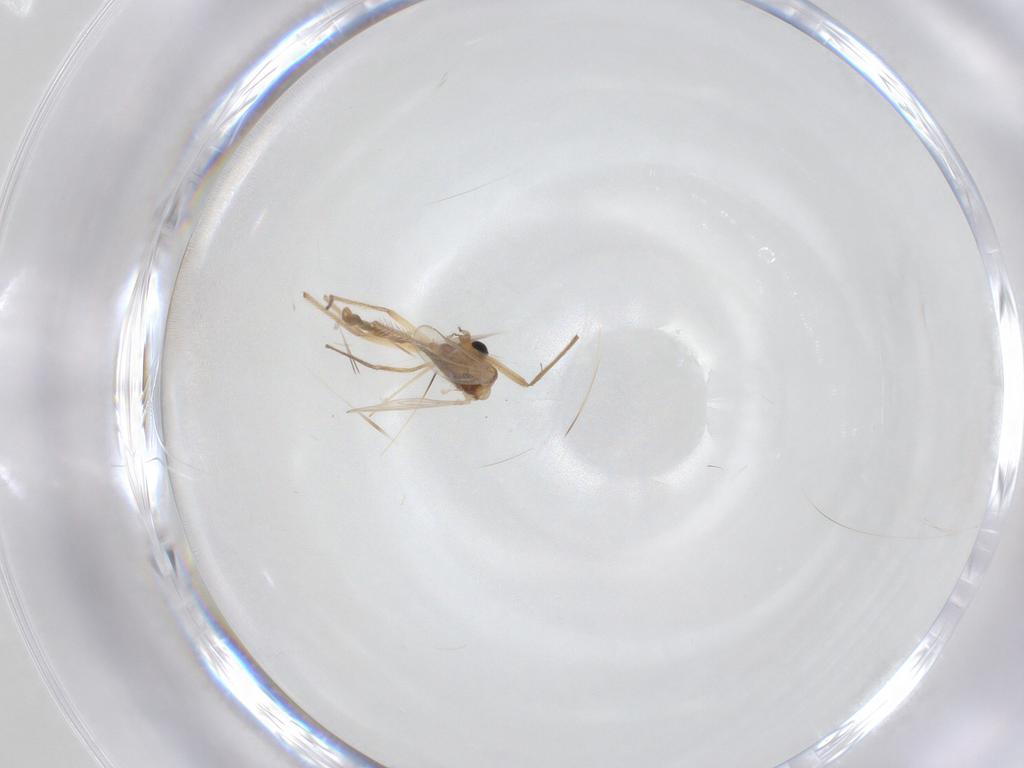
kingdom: Animalia
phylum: Arthropoda
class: Insecta
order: Diptera
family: Chironomidae
